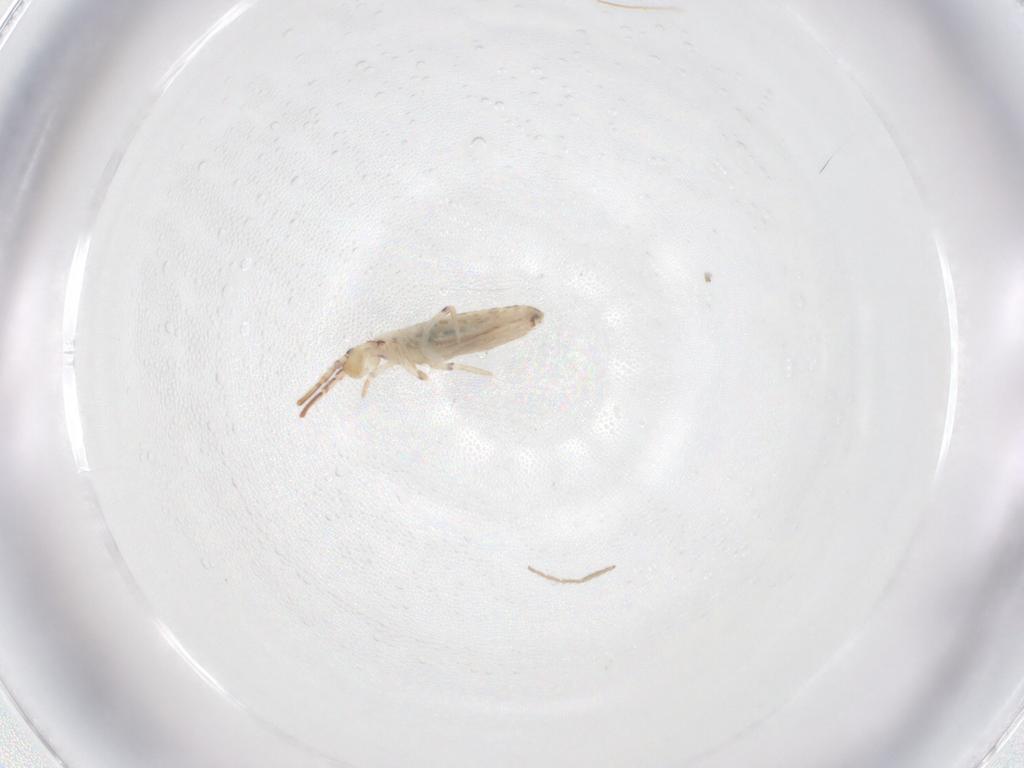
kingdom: Animalia
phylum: Arthropoda
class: Collembola
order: Entomobryomorpha
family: Entomobryidae
